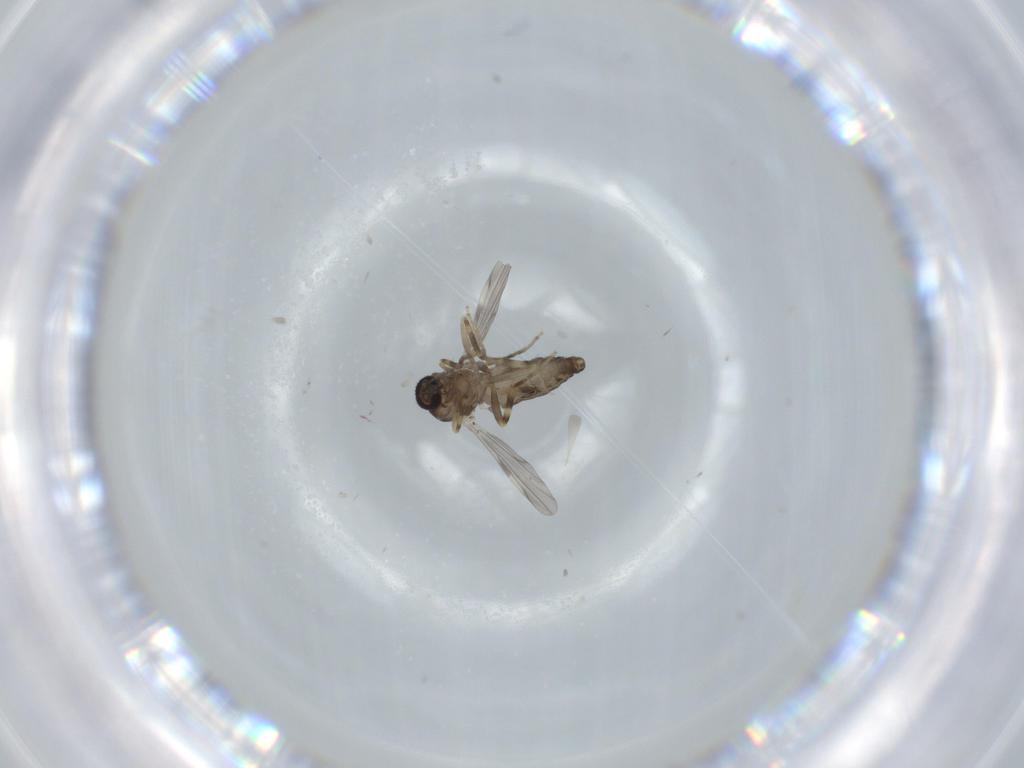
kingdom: Animalia
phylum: Arthropoda
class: Insecta
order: Diptera
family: Ceratopogonidae
